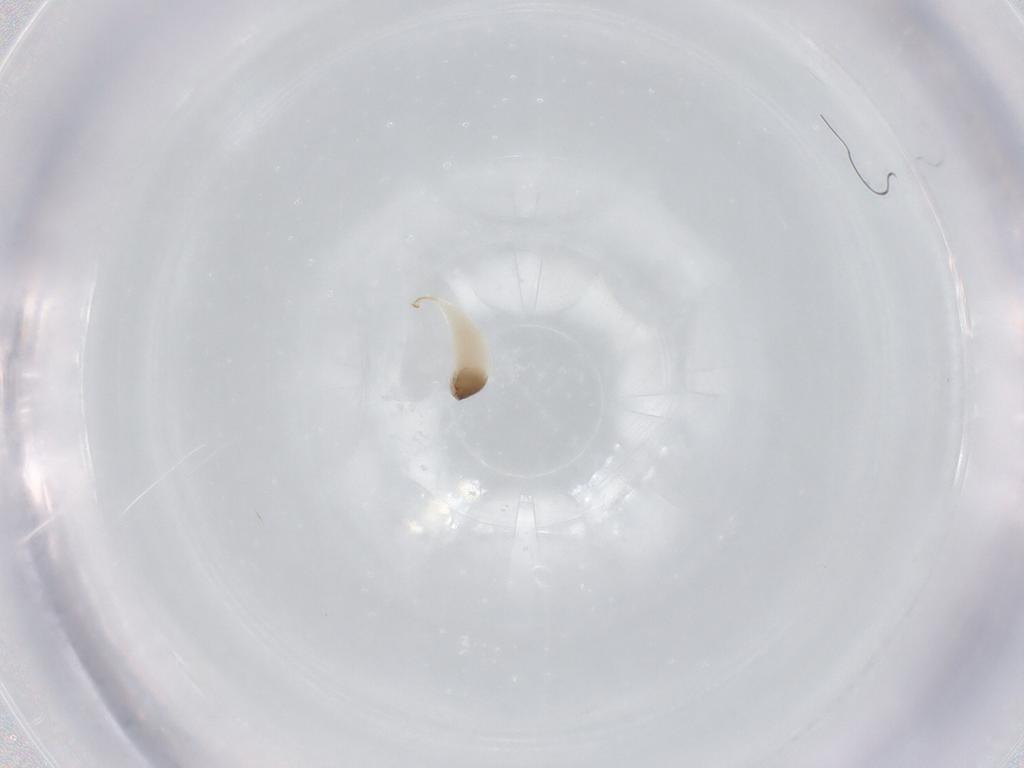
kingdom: Animalia
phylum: Arthropoda
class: Insecta
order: Hymenoptera
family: Ichneumonidae
